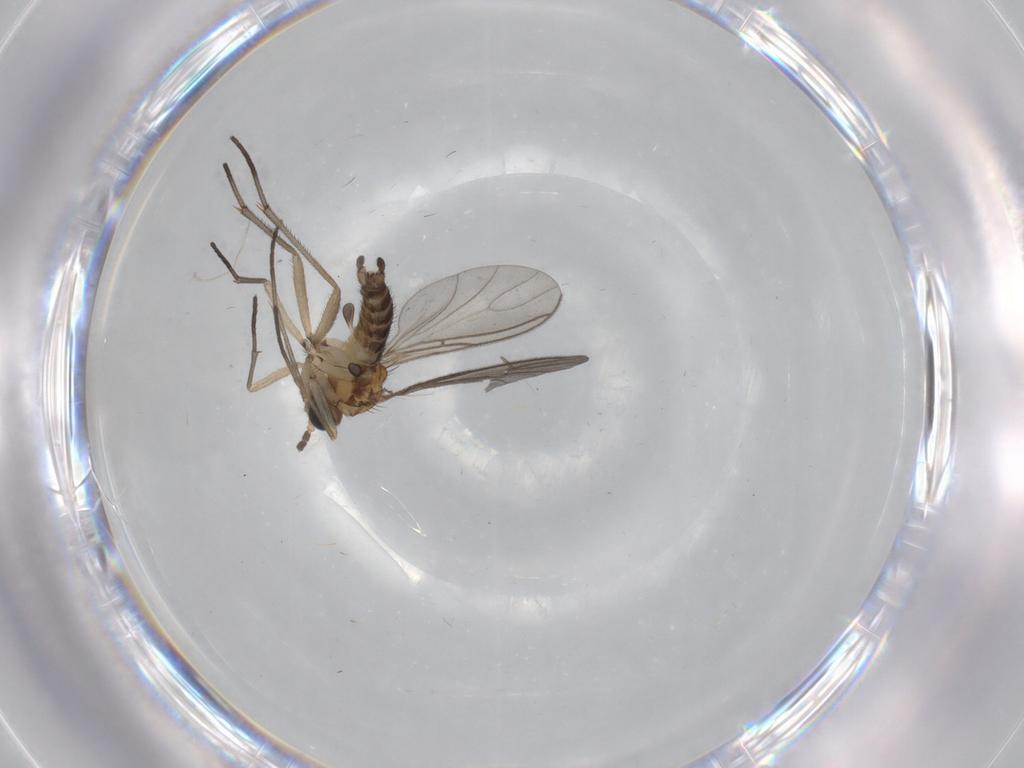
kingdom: Animalia
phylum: Arthropoda
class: Insecta
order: Diptera
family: Sciaridae
